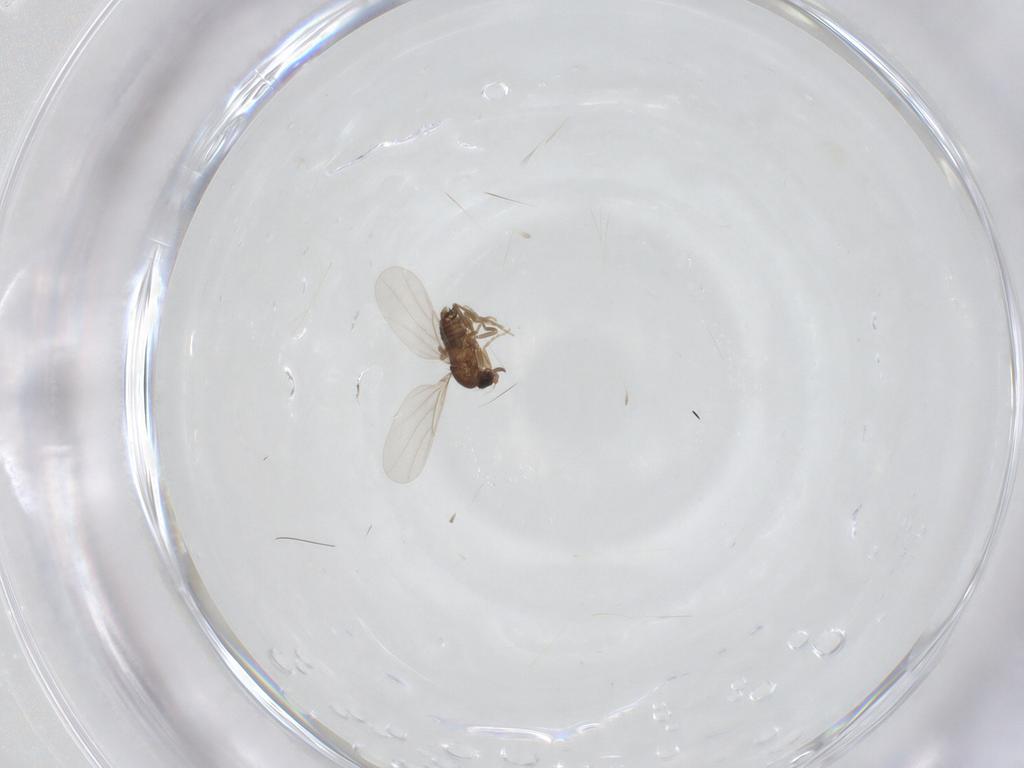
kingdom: Animalia
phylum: Arthropoda
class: Insecta
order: Diptera
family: Phoridae
